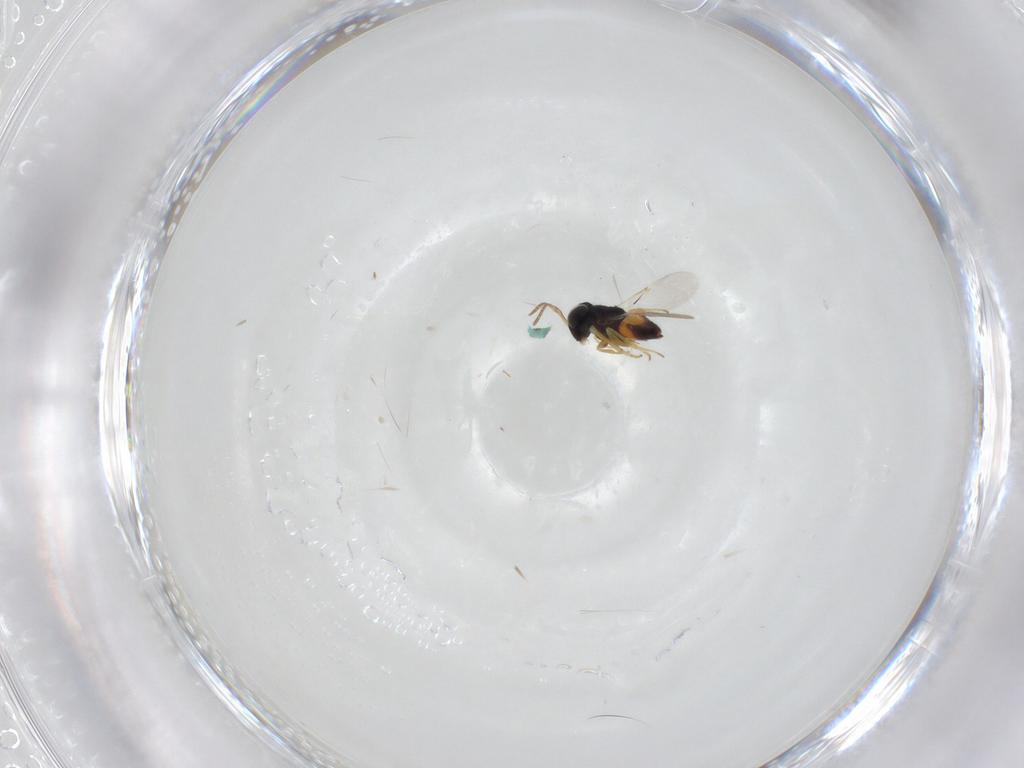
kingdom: Animalia
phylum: Arthropoda
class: Insecta
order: Hymenoptera
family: Encyrtidae
